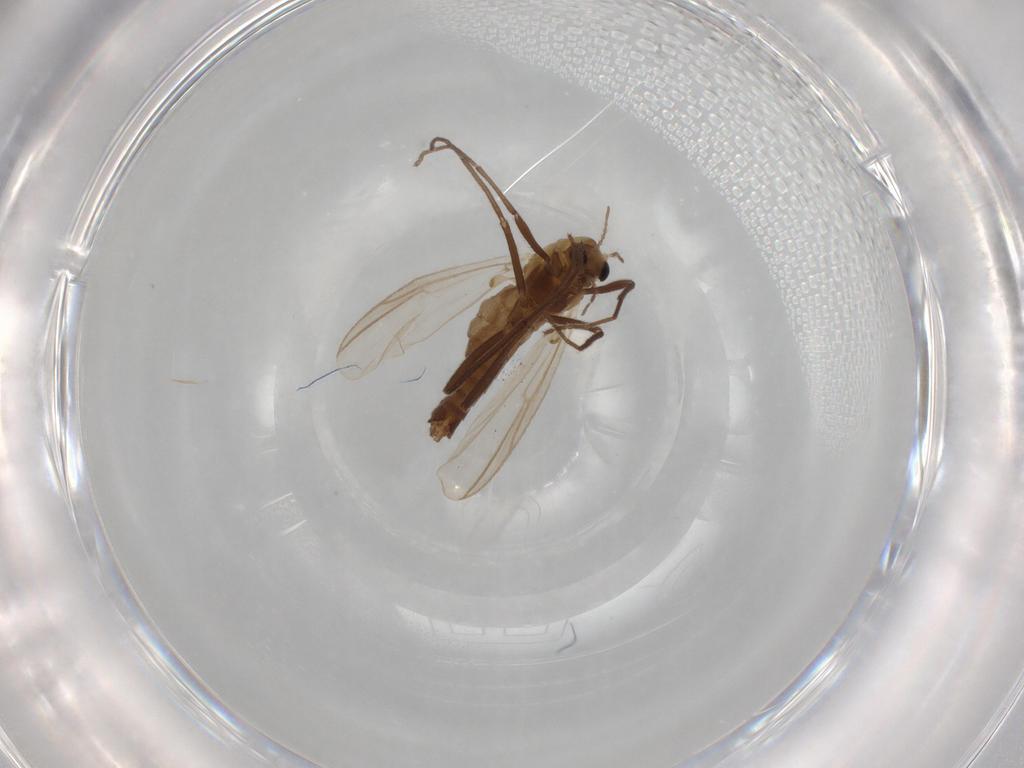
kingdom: Animalia
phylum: Arthropoda
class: Insecta
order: Diptera
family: Chironomidae
